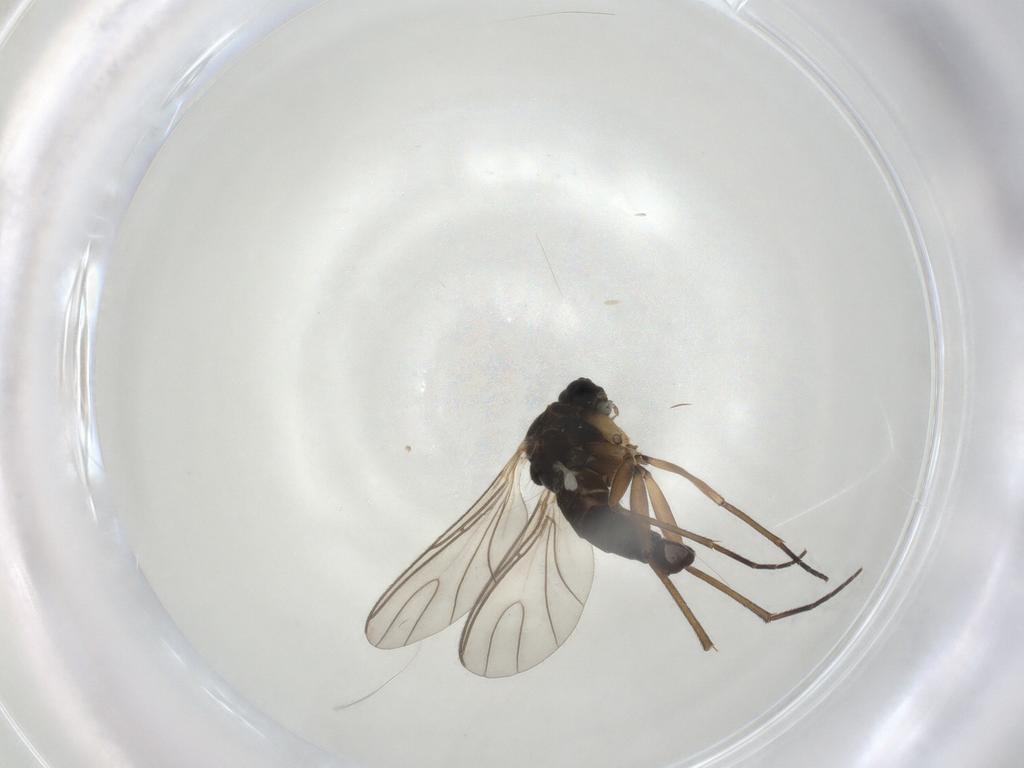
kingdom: Animalia
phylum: Arthropoda
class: Insecta
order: Diptera
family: Sciaridae
